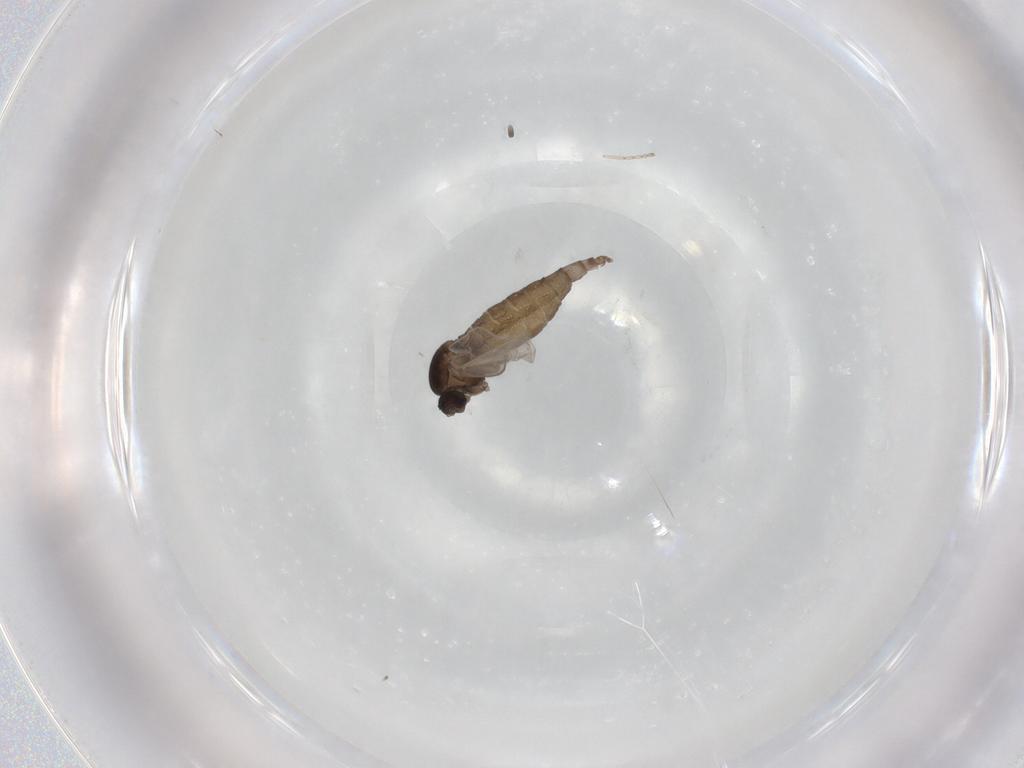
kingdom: Animalia
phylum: Arthropoda
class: Insecta
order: Diptera
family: Cecidomyiidae
